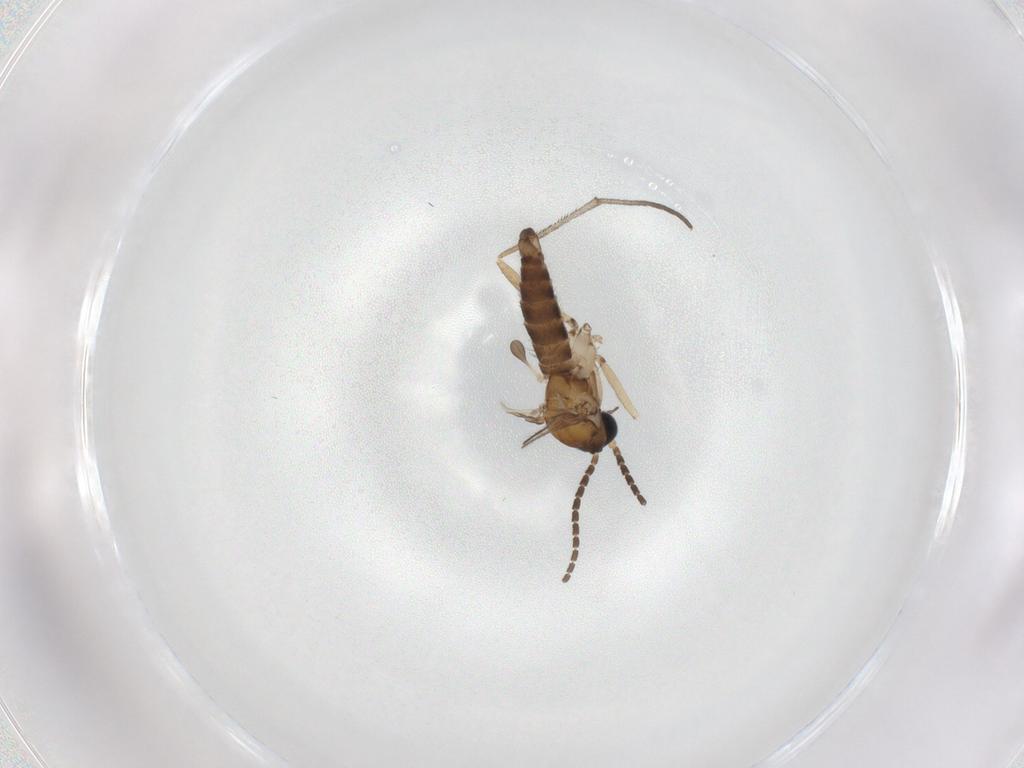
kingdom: Animalia
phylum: Arthropoda
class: Insecta
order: Diptera
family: Sciaridae
